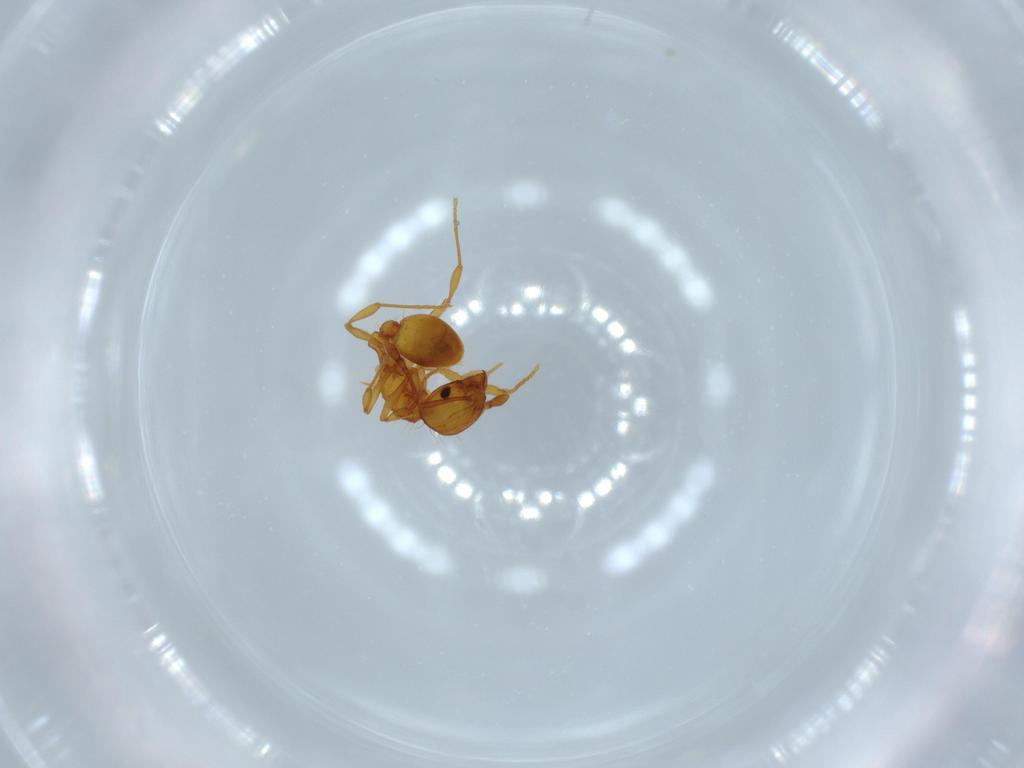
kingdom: Animalia
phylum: Arthropoda
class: Insecta
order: Hymenoptera
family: Formicidae
